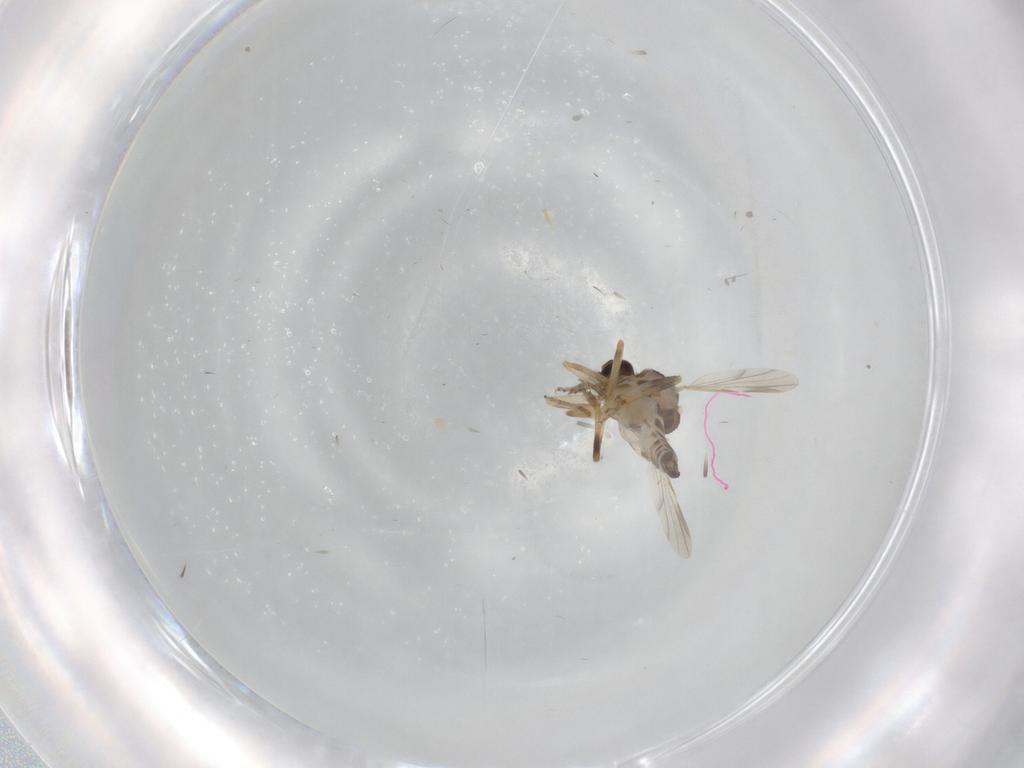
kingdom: Animalia
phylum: Arthropoda
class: Insecta
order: Diptera
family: Ceratopogonidae
